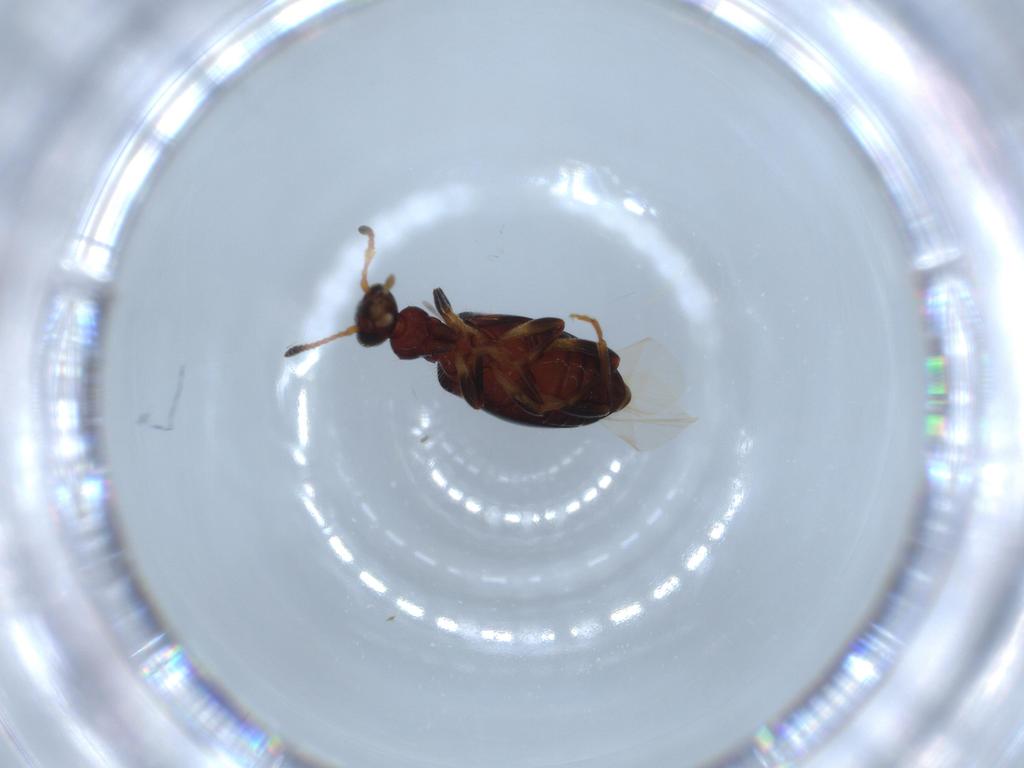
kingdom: Animalia
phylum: Arthropoda
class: Insecta
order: Coleoptera
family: Anthicidae
